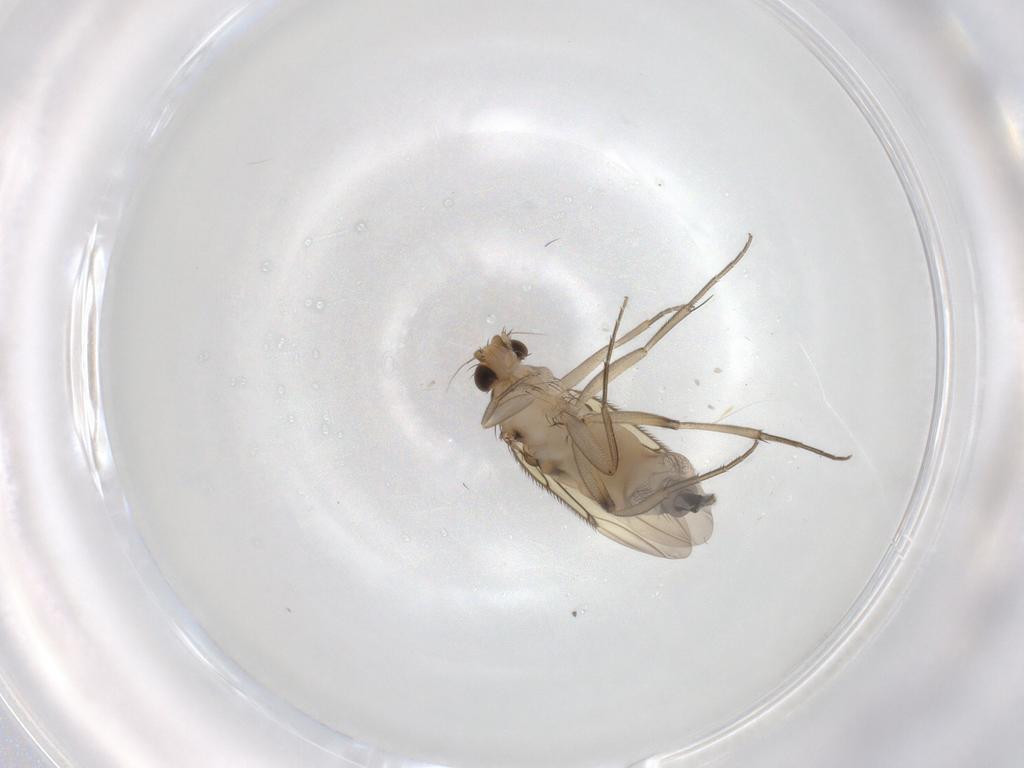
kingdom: Animalia
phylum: Arthropoda
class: Insecta
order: Diptera
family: Phoridae
